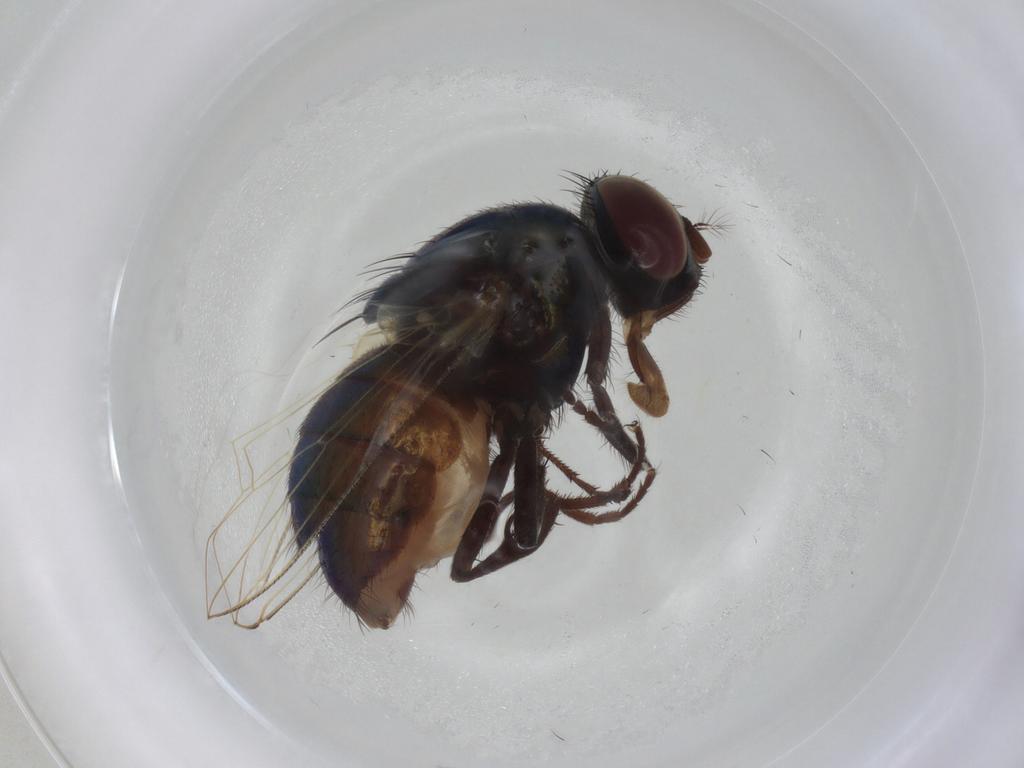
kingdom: Animalia
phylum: Arthropoda
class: Insecta
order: Diptera
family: Muscidae
